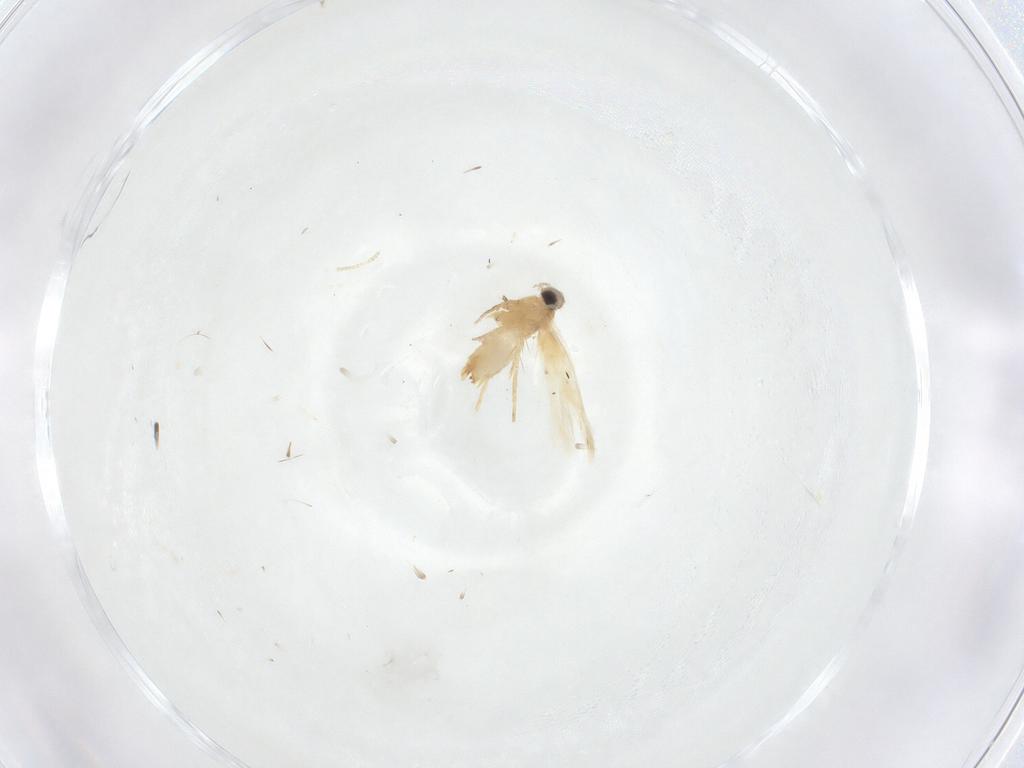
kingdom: Animalia
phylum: Arthropoda
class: Insecta
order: Lepidoptera
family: Crambidae
